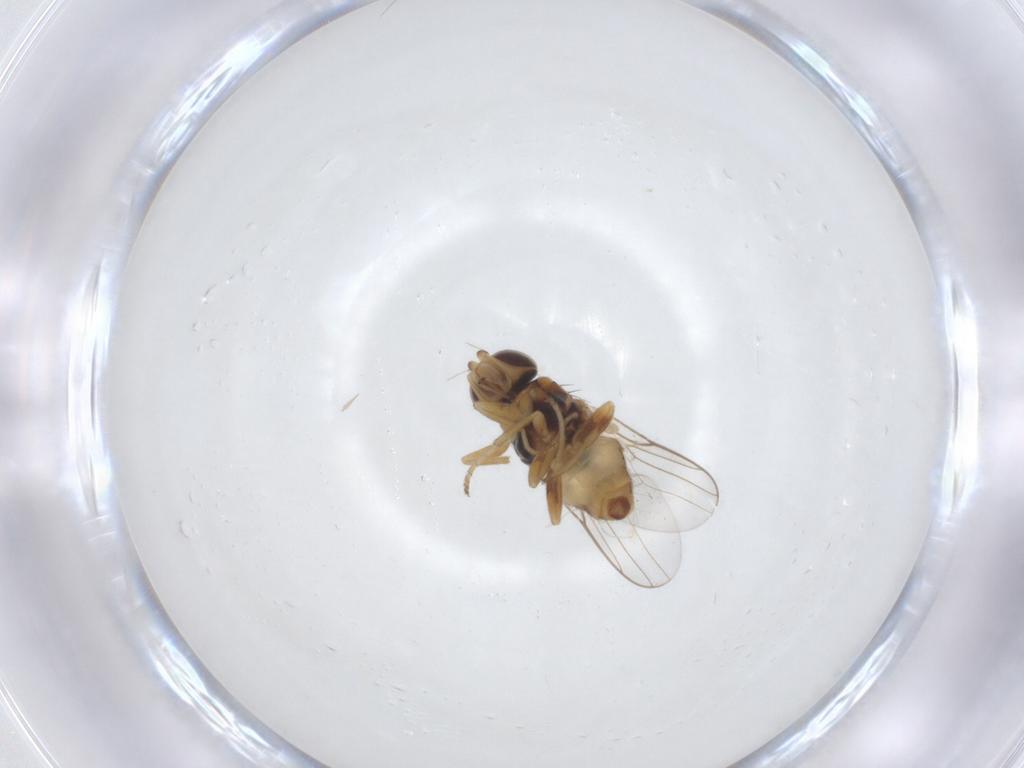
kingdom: Animalia
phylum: Arthropoda
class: Insecta
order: Diptera
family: Chloropidae
